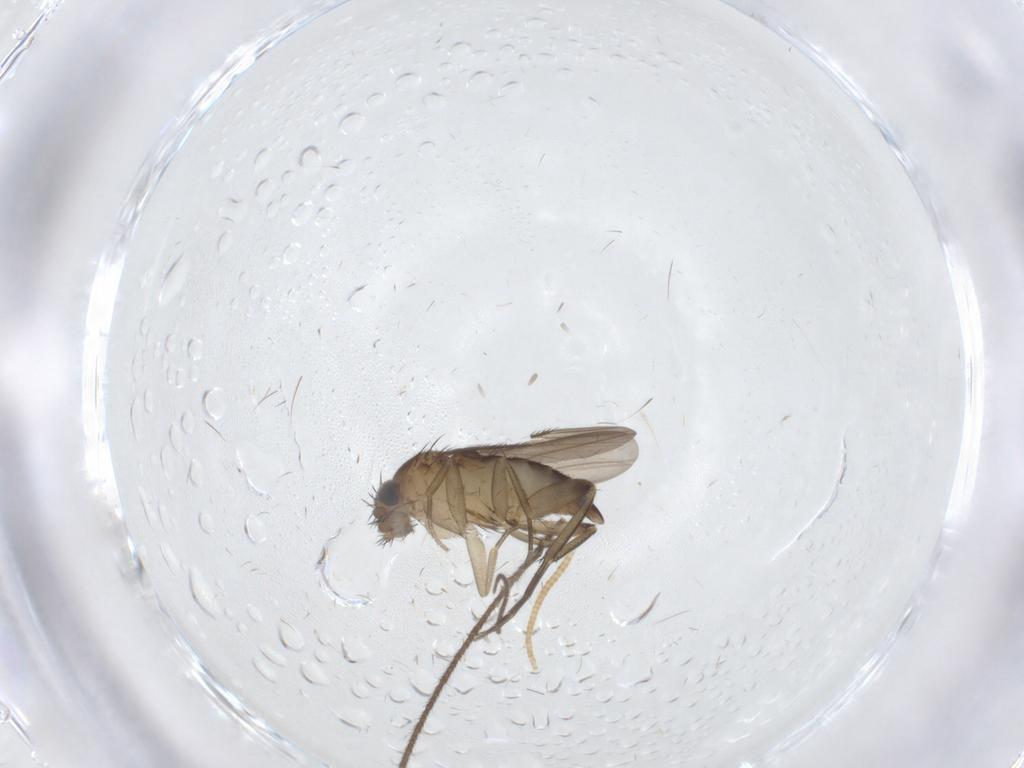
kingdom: Animalia
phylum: Arthropoda
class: Insecta
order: Diptera
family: Phoridae
